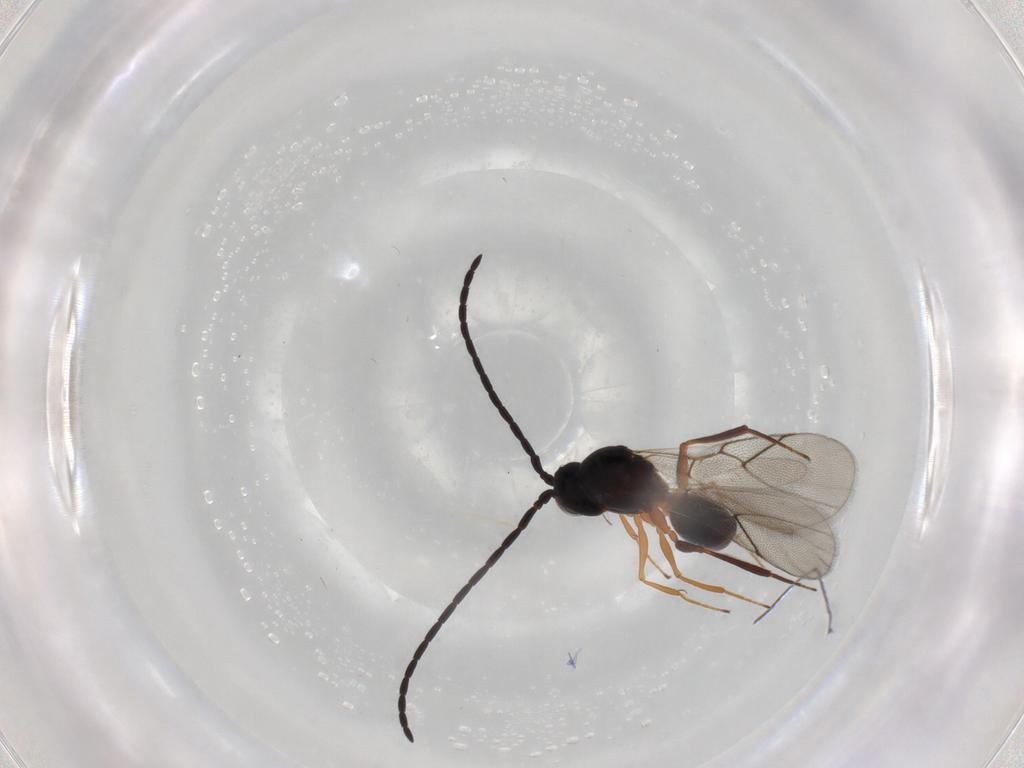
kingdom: Animalia
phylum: Arthropoda
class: Insecta
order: Hymenoptera
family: Figitidae
